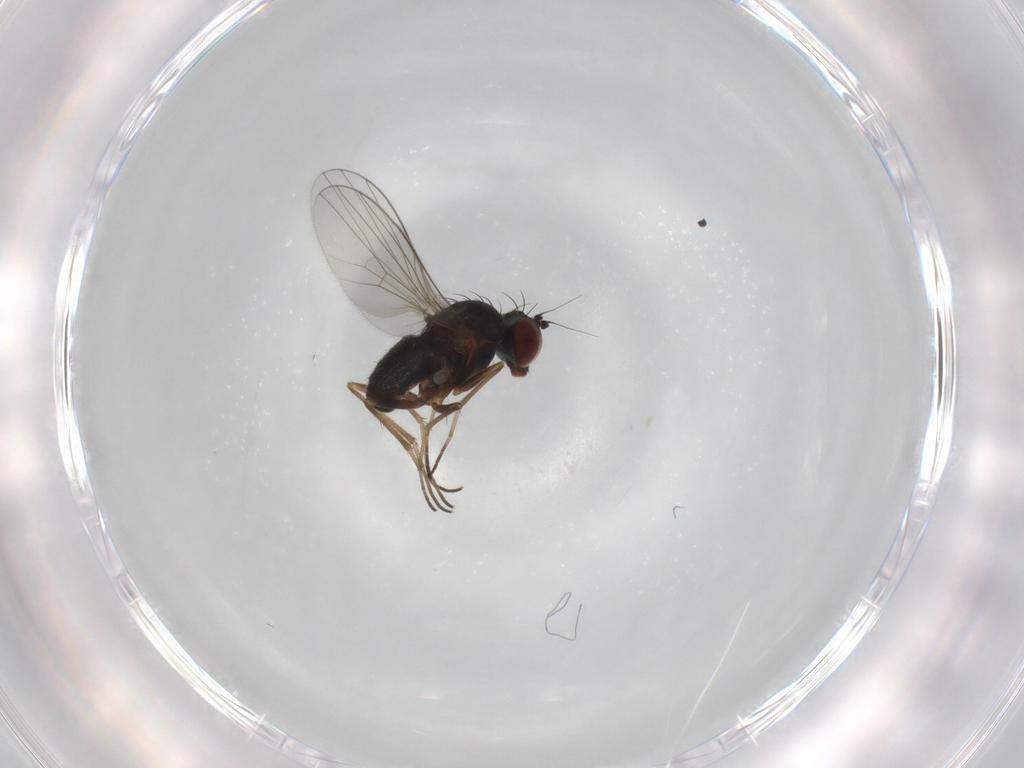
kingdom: Animalia
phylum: Arthropoda
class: Insecta
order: Diptera
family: Dolichopodidae
